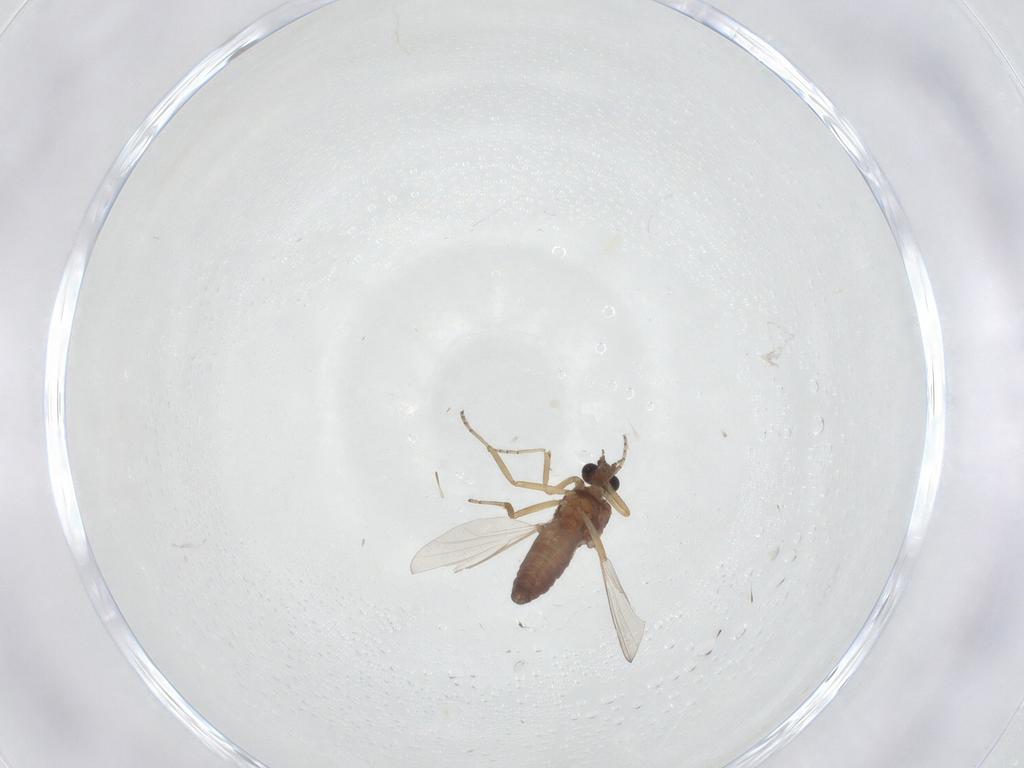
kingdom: Animalia
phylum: Arthropoda
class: Insecta
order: Diptera
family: Ceratopogonidae
